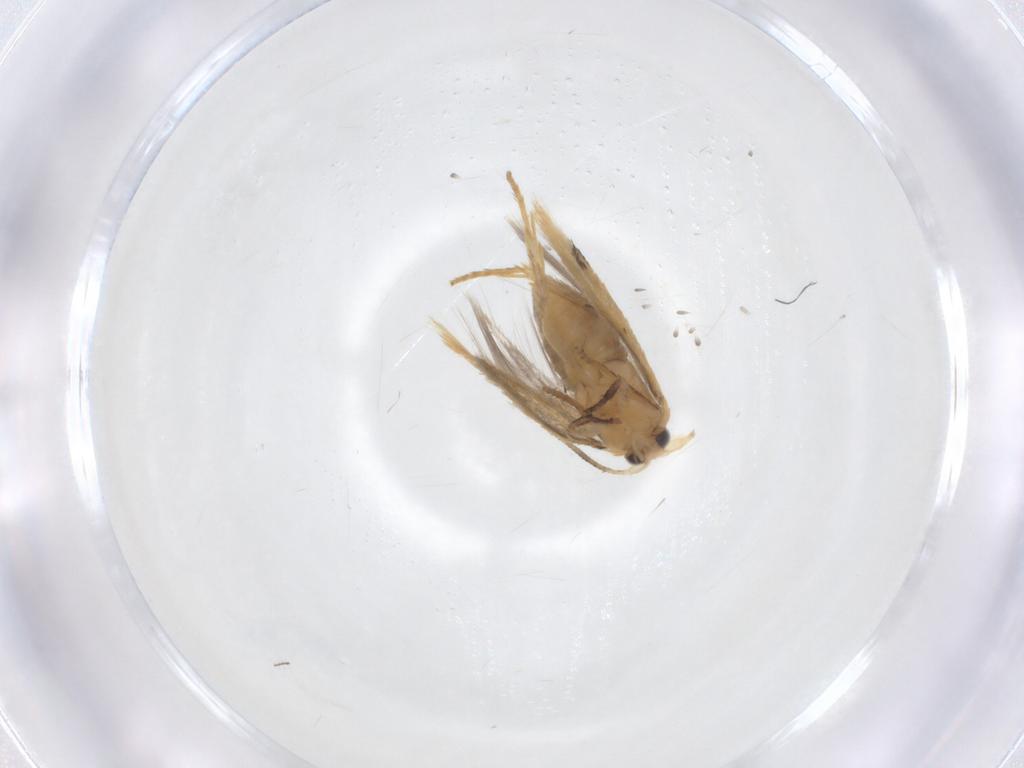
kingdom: Animalia
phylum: Arthropoda
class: Insecta
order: Lepidoptera
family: Nepticulidae
